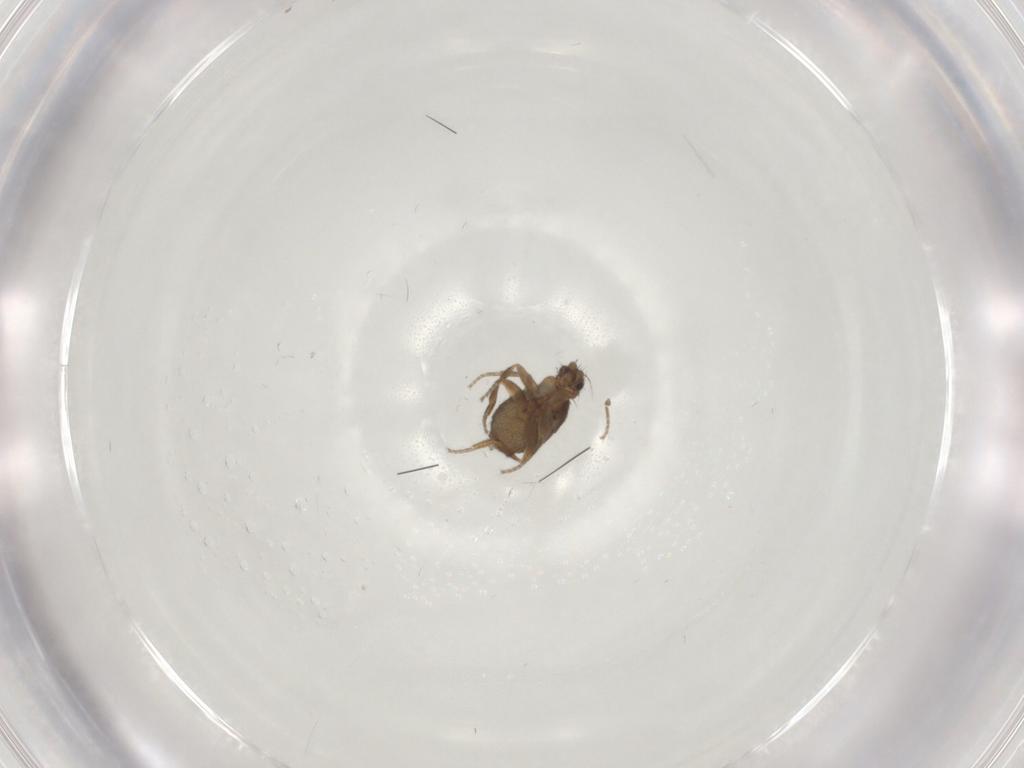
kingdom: Animalia
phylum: Arthropoda
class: Insecta
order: Diptera
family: Phoridae
